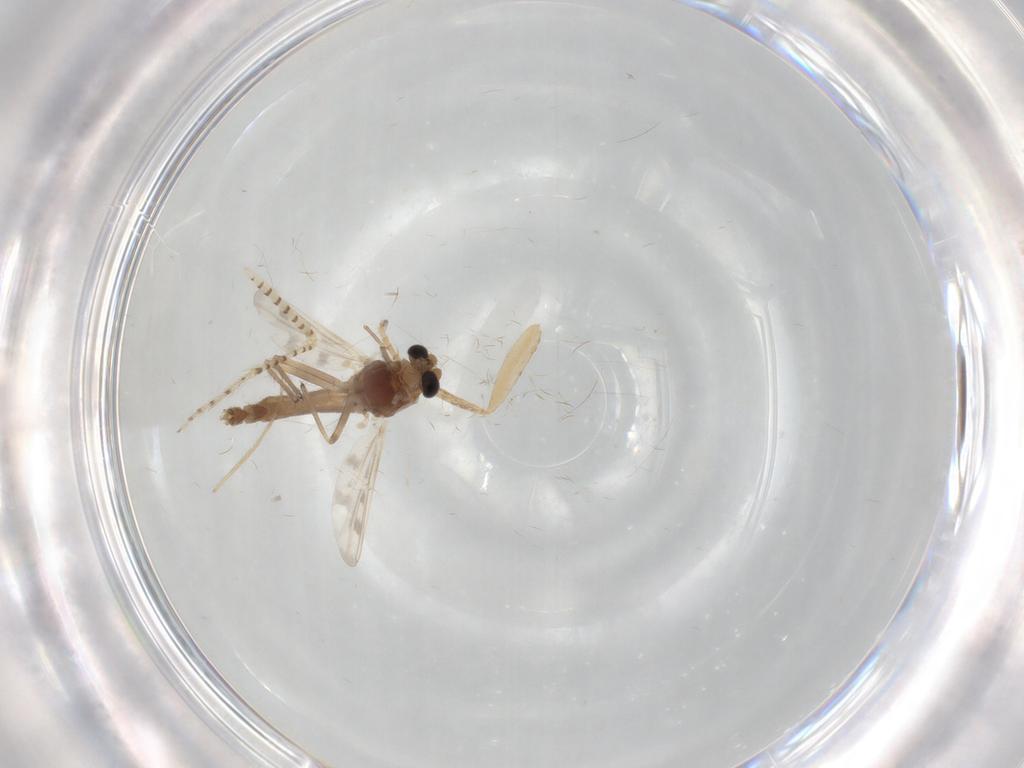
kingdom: Animalia
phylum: Arthropoda
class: Insecta
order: Diptera
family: Chironomidae
